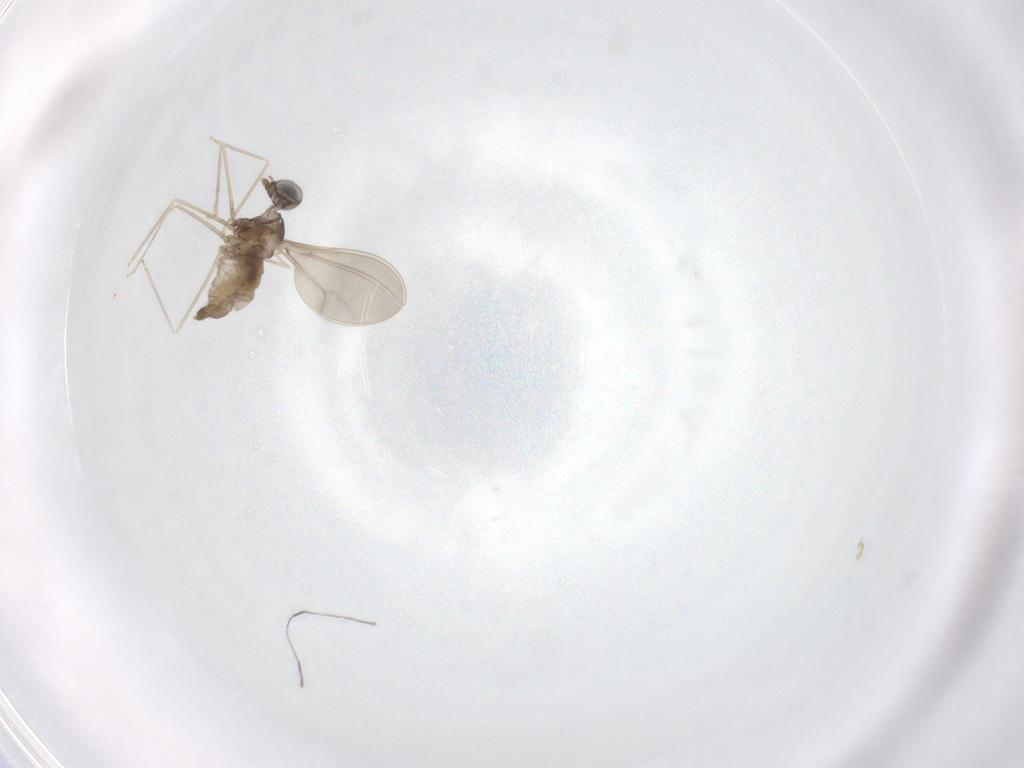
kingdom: Animalia
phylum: Arthropoda
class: Insecta
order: Diptera
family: Cecidomyiidae
